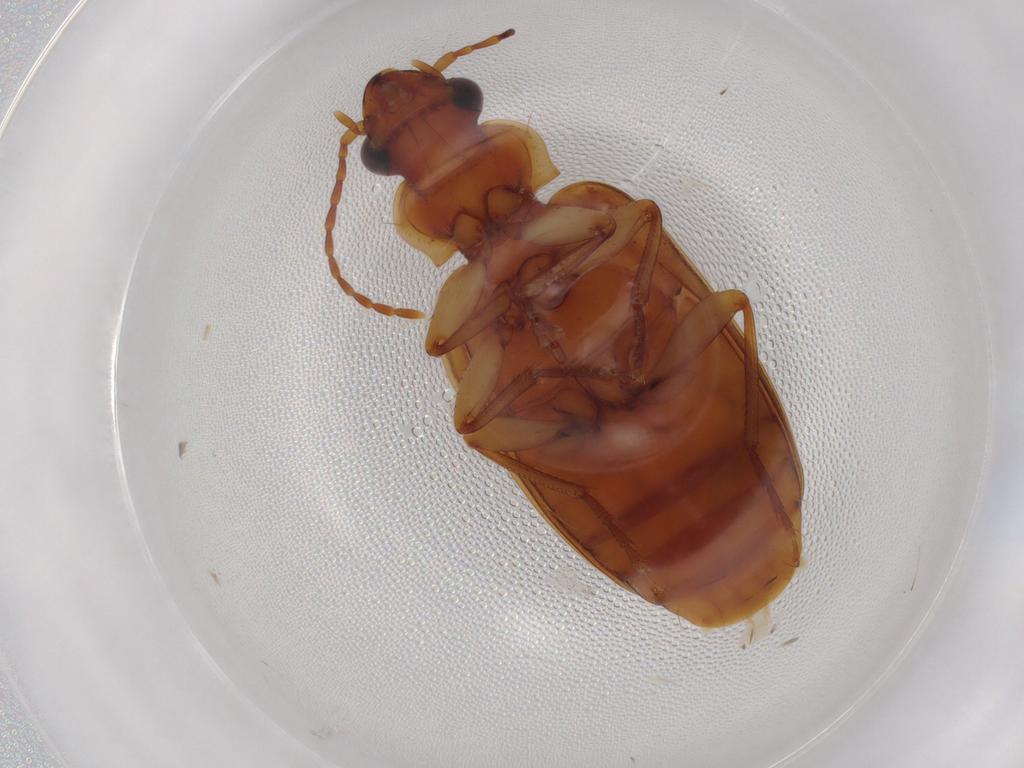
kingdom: Animalia
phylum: Arthropoda
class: Insecta
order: Coleoptera
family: Carabidae
